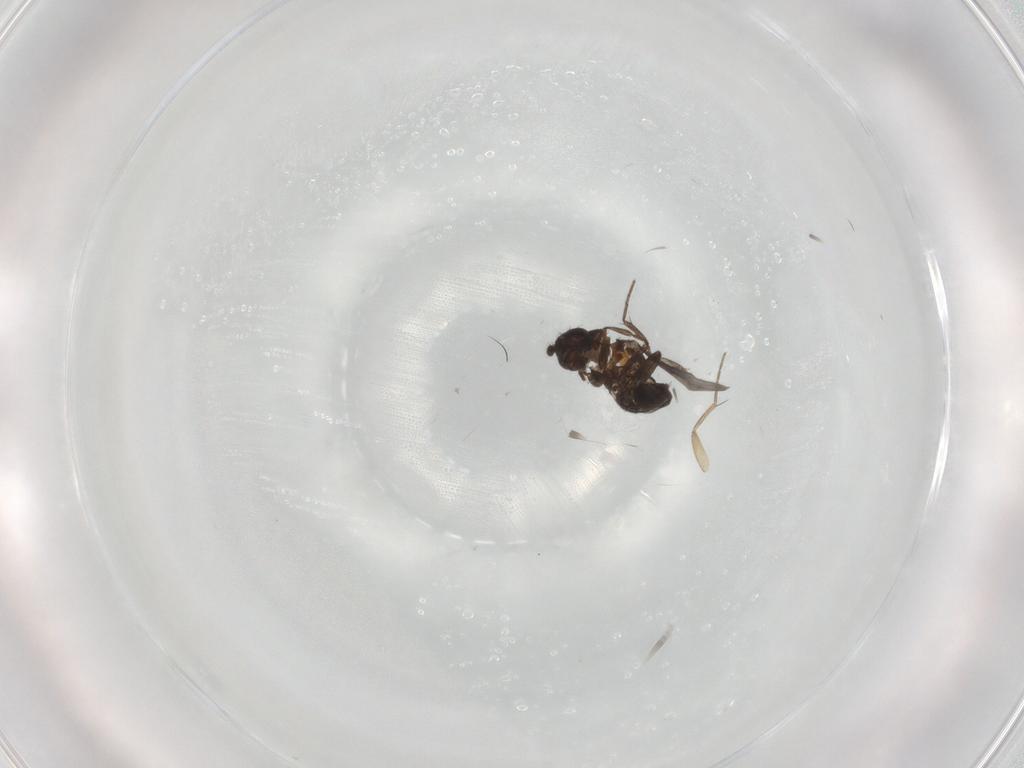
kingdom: Animalia
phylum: Arthropoda
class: Insecta
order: Diptera
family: Sphaeroceridae
